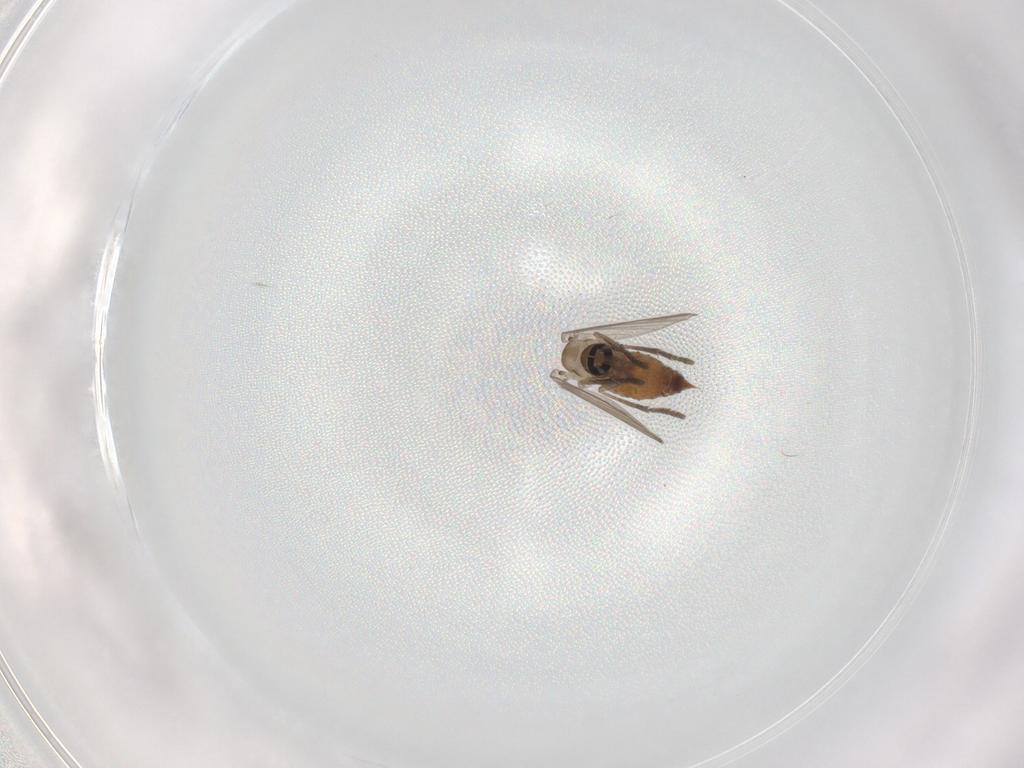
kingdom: Animalia
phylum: Arthropoda
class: Insecta
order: Diptera
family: Psychodidae
